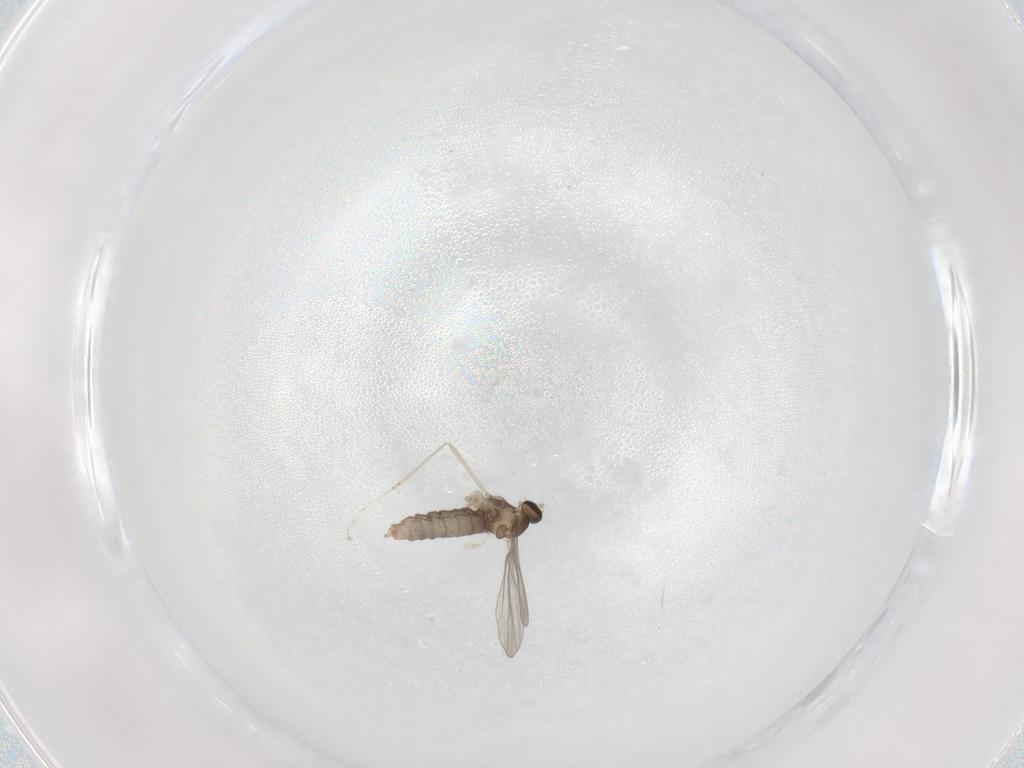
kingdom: Animalia
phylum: Arthropoda
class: Insecta
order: Diptera
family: Cecidomyiidae
